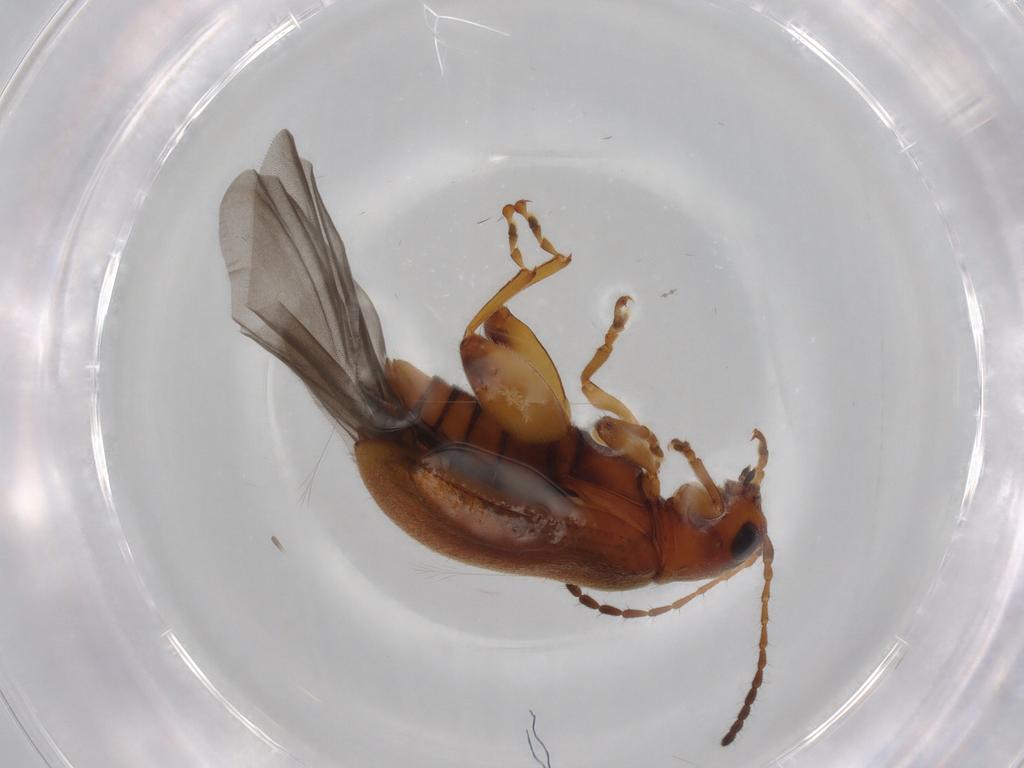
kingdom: Animalia
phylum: Arthropoda
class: Insecta
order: Coleoptera
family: Chrysomelidae
